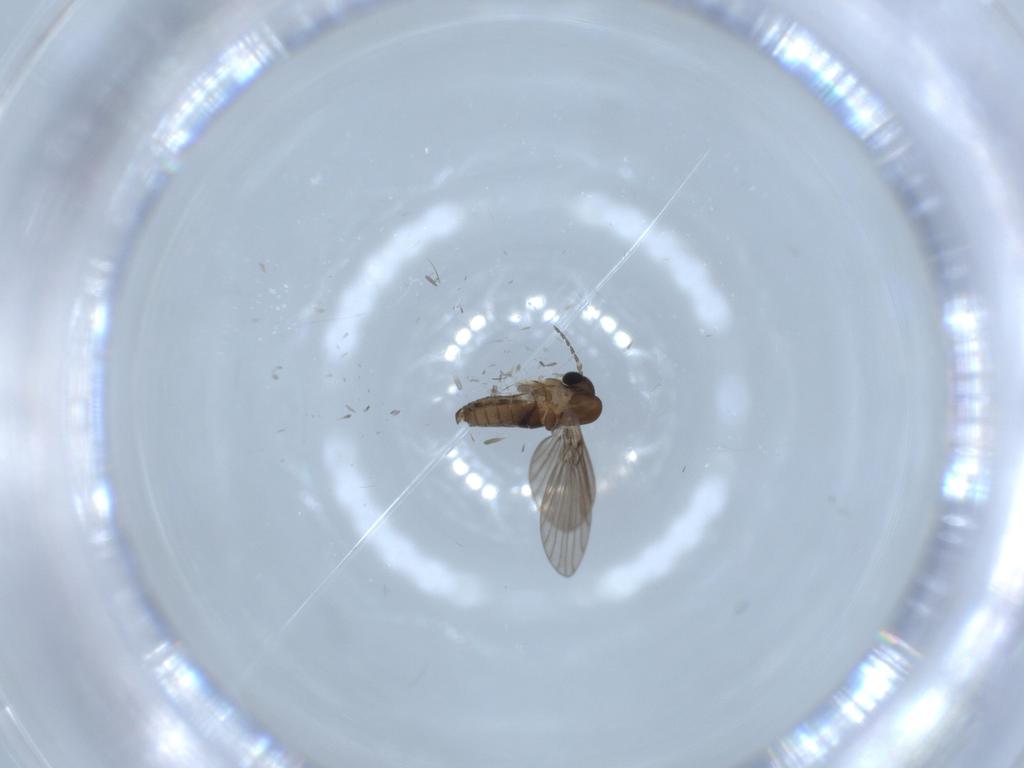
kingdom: Animalia
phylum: Arthropoda
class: Insecta
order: Diptera
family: Psychodidae
